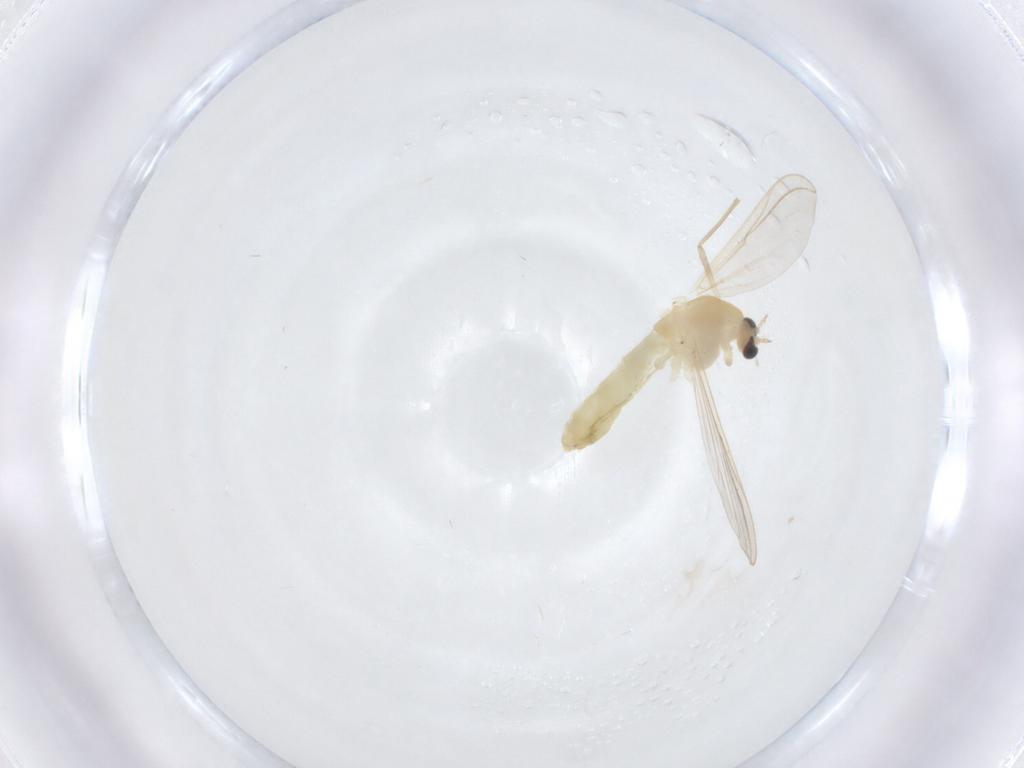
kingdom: Animalia
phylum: Arthropoda
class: Insecta
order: Diptera
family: Chironomidae
